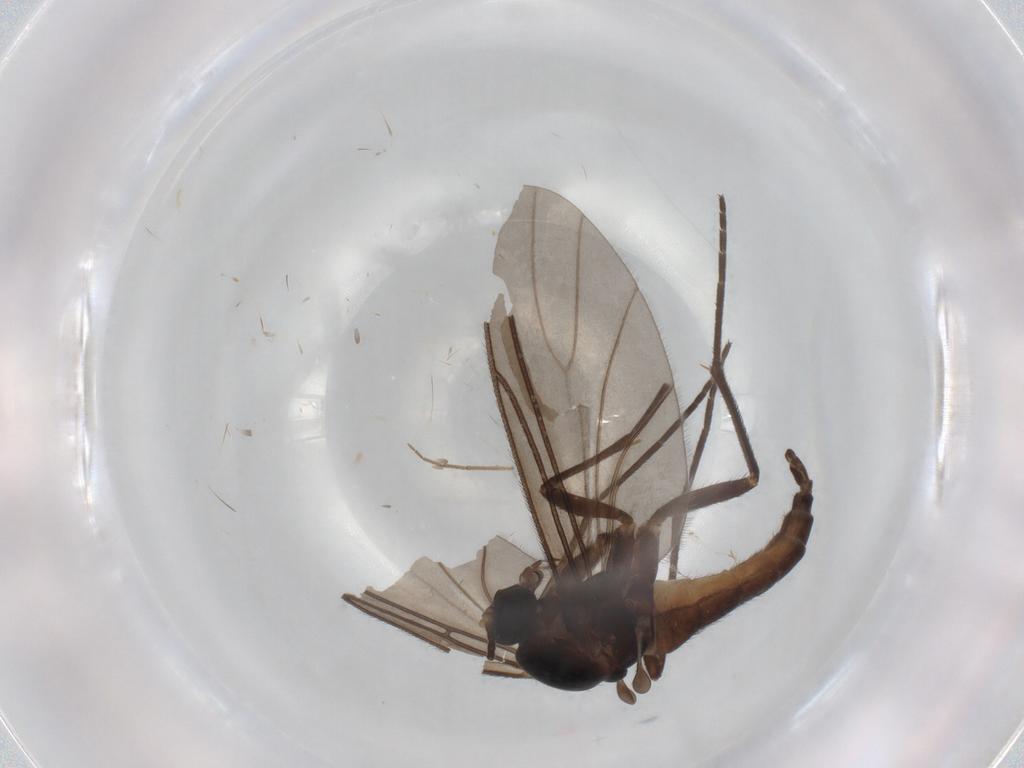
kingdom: Animalia
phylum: Arthropoda
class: Insecta
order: Diptera
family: Sciaridae
